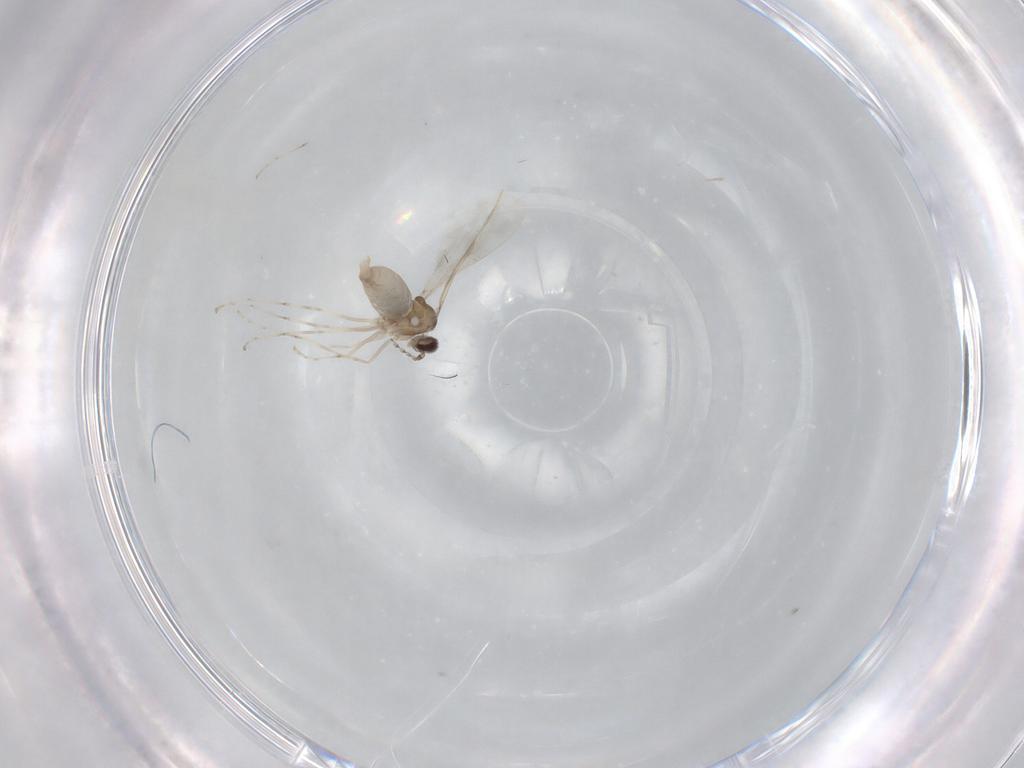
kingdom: Animalia
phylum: Arthropoda
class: Insecta
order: Diptera
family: Cecidomyiidae
